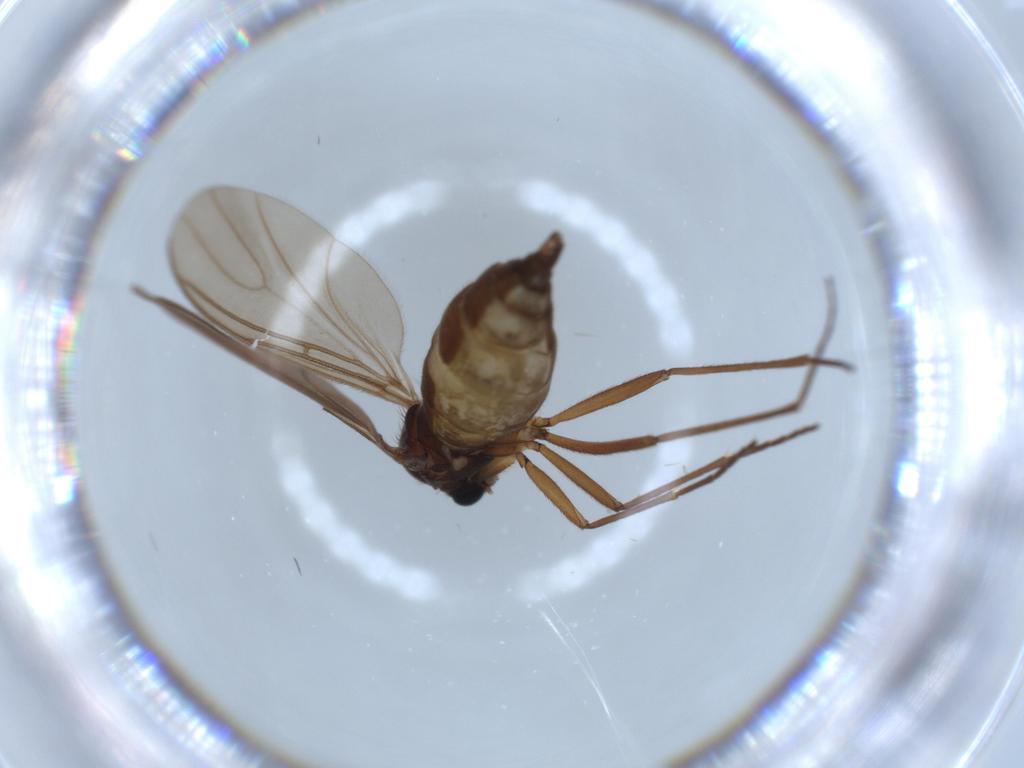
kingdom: Animalia
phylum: Arthropoda
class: Insecta
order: Diptera
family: Sciaridae
